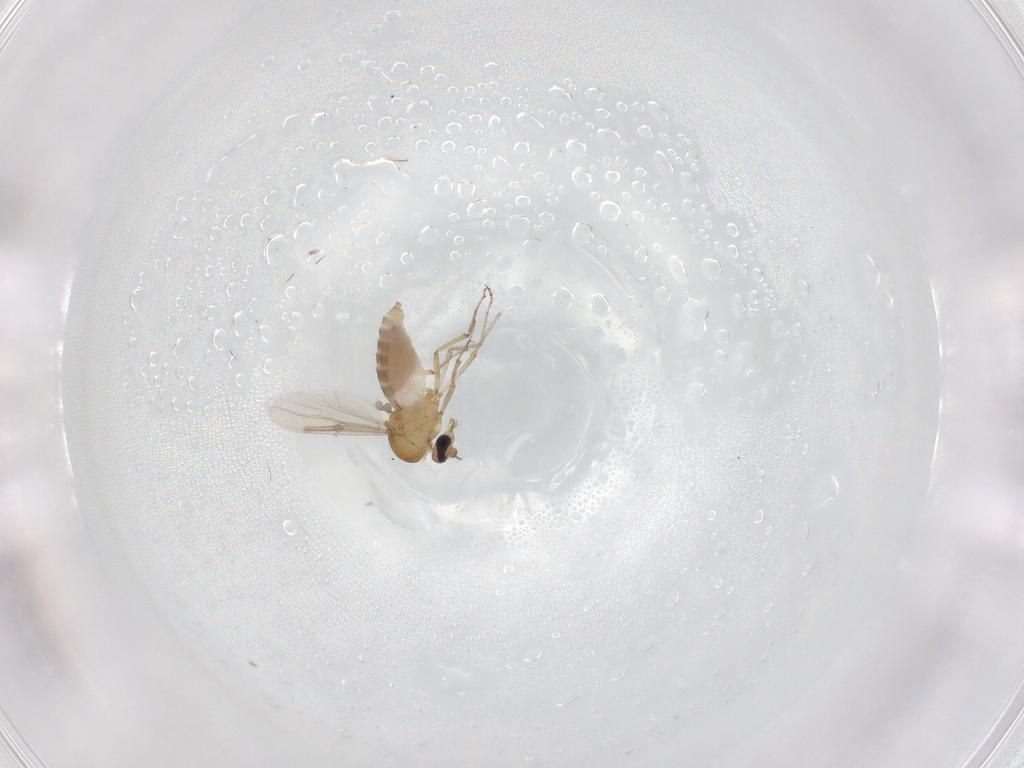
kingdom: Animalia
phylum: Arthropoda
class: Insecta
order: Diptera
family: Ceratopogonidae
